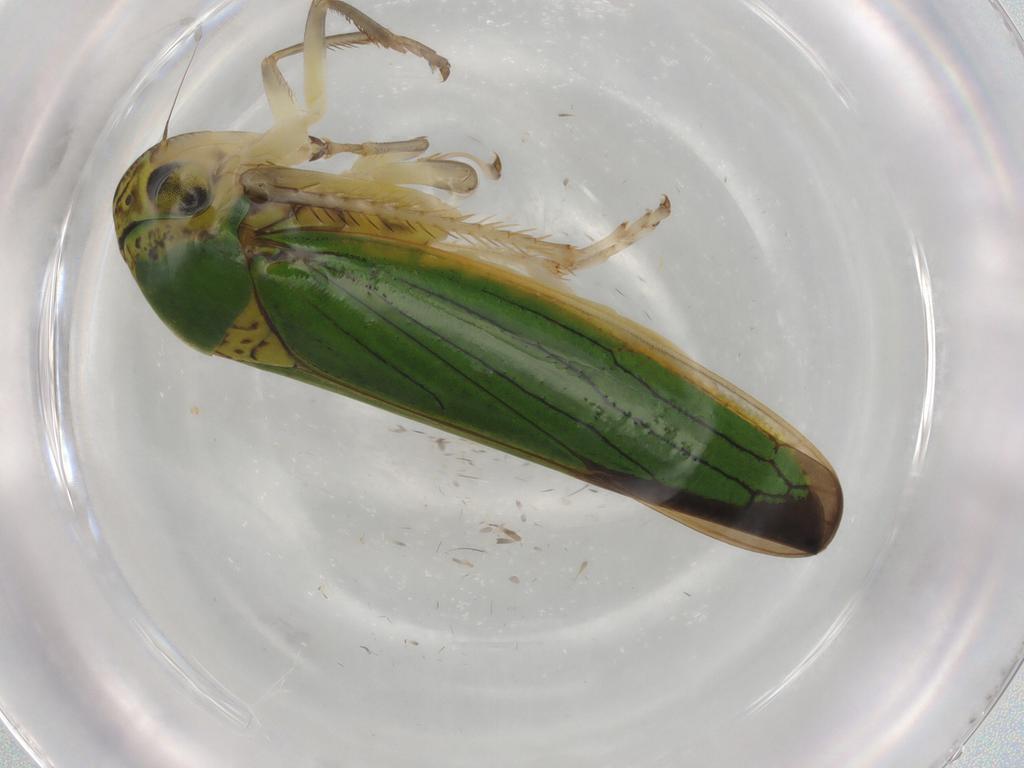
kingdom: Animalia
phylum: Arthropoda
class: Insecta
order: Hemiptera
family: Cicadellidae
